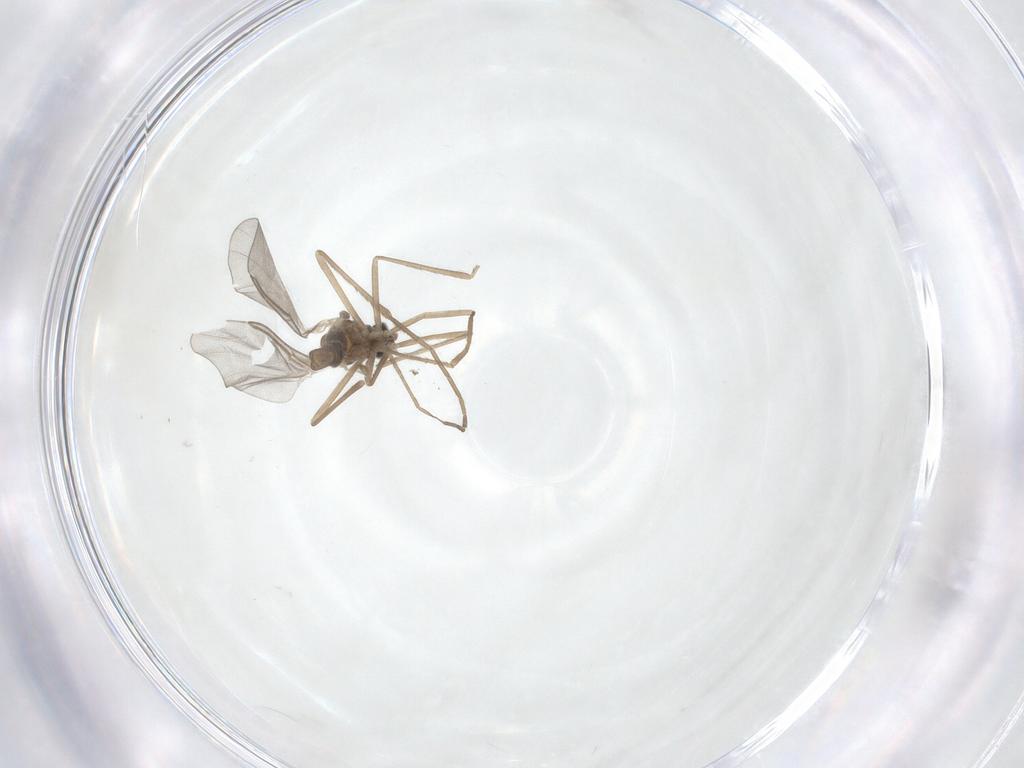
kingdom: Animalia
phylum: Arthropoda
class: Insecta
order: Diptera
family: Cecidomyiidae
